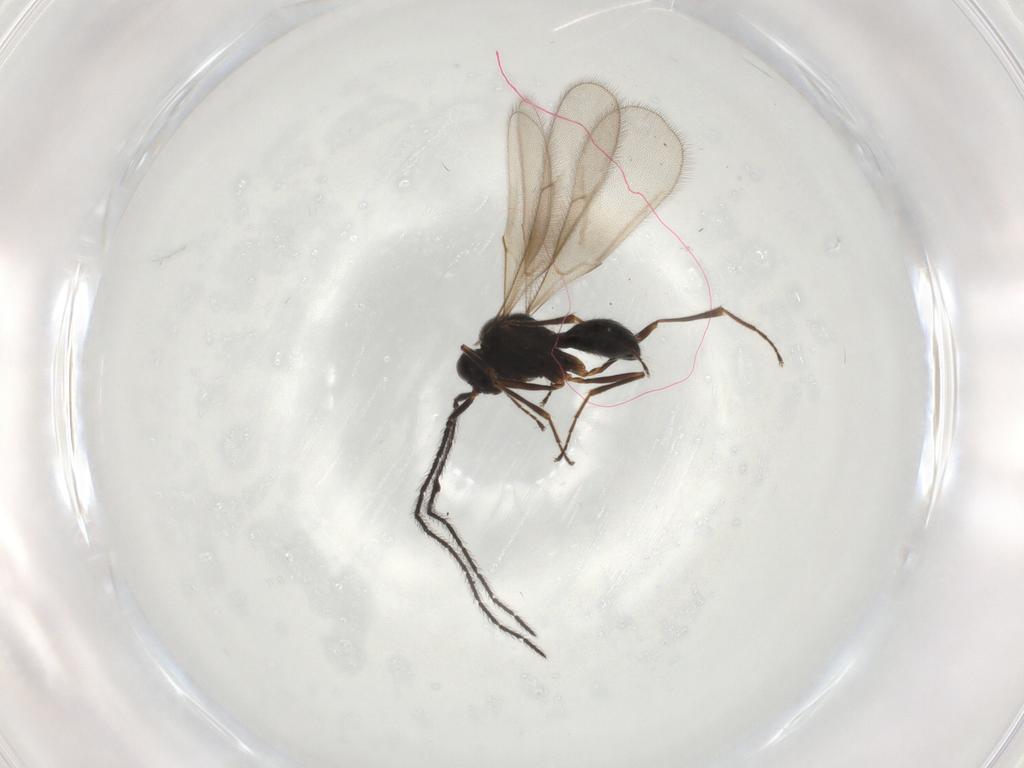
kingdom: Animalia
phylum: Arthropoda
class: Insecta
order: Hymenoptera
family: Scelionidae
